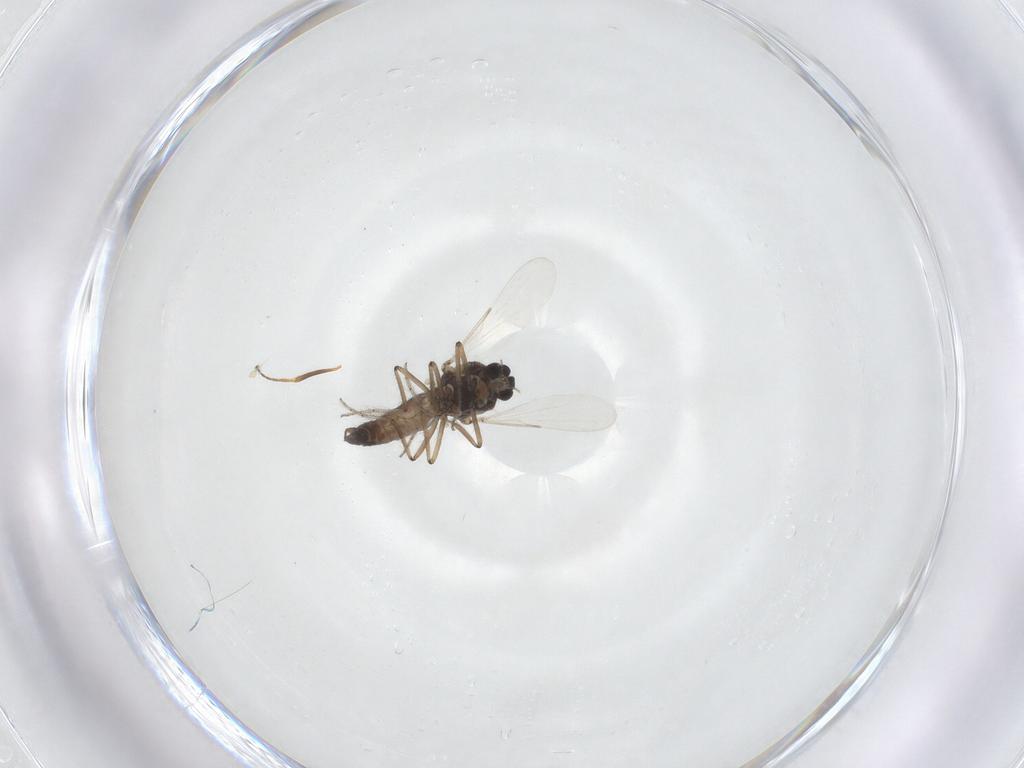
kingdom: Animalia
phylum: Arthropoda
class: Insecta
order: Diptera
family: Ceratopogonidae
